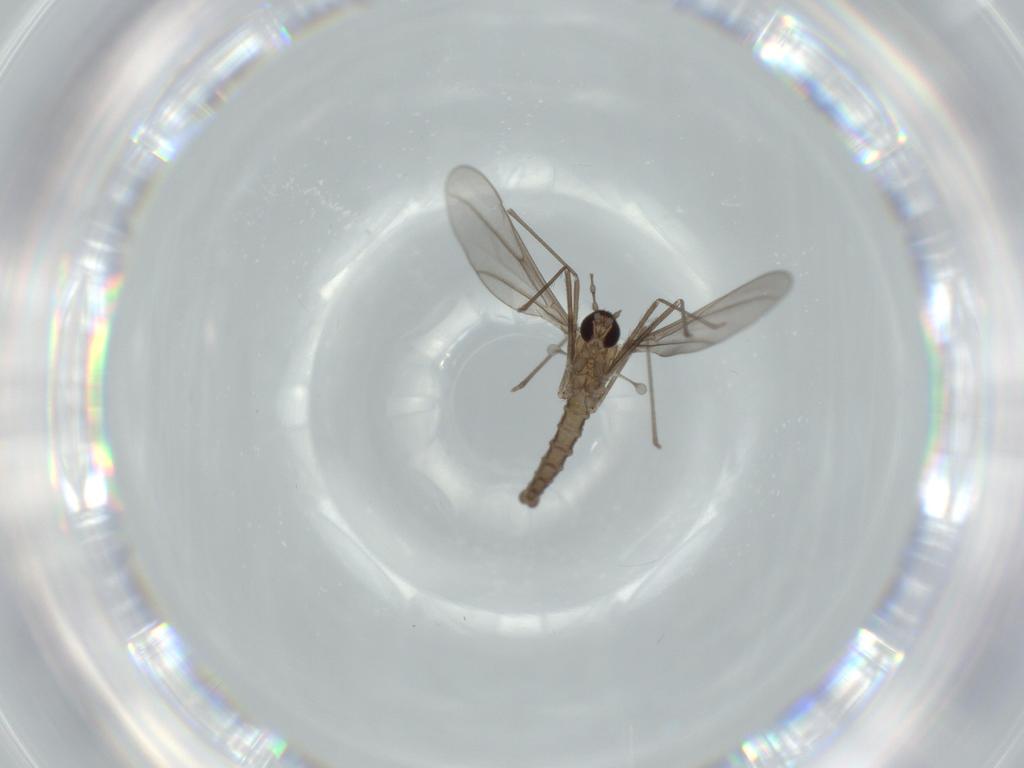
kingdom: Animalia
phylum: Arthropoda
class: Insecta
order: Diptera
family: Cecidomyiidae
